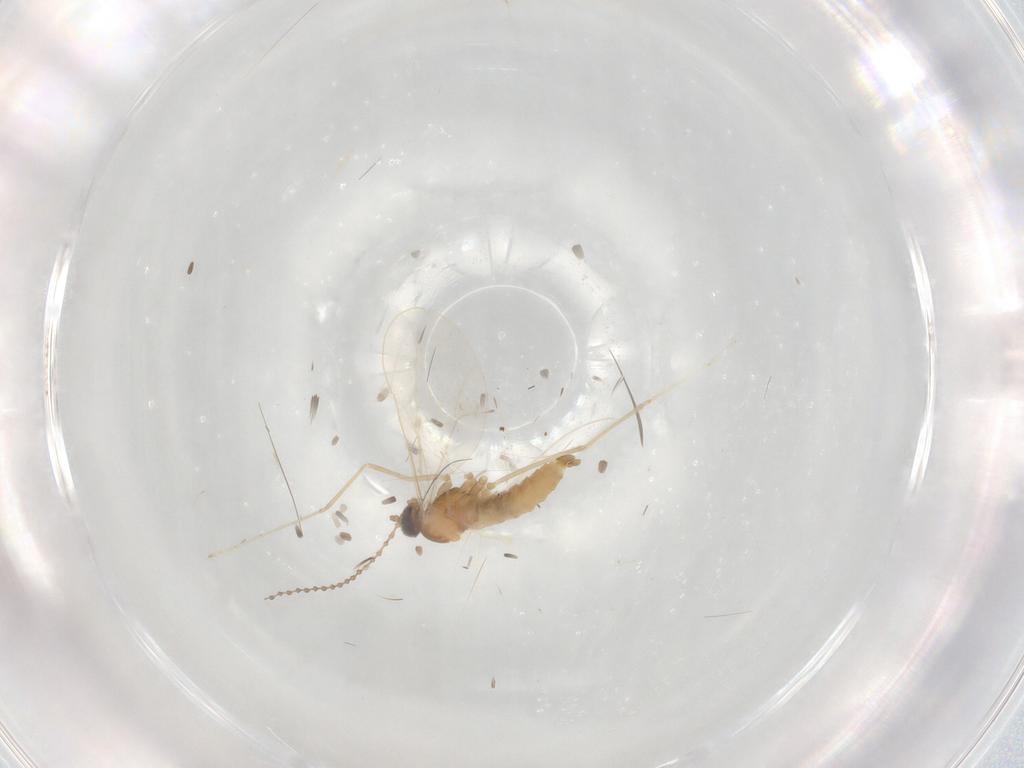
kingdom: Animalia
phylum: Arthropoda
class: Insecta
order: Diptera
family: Cecidomyiidae
